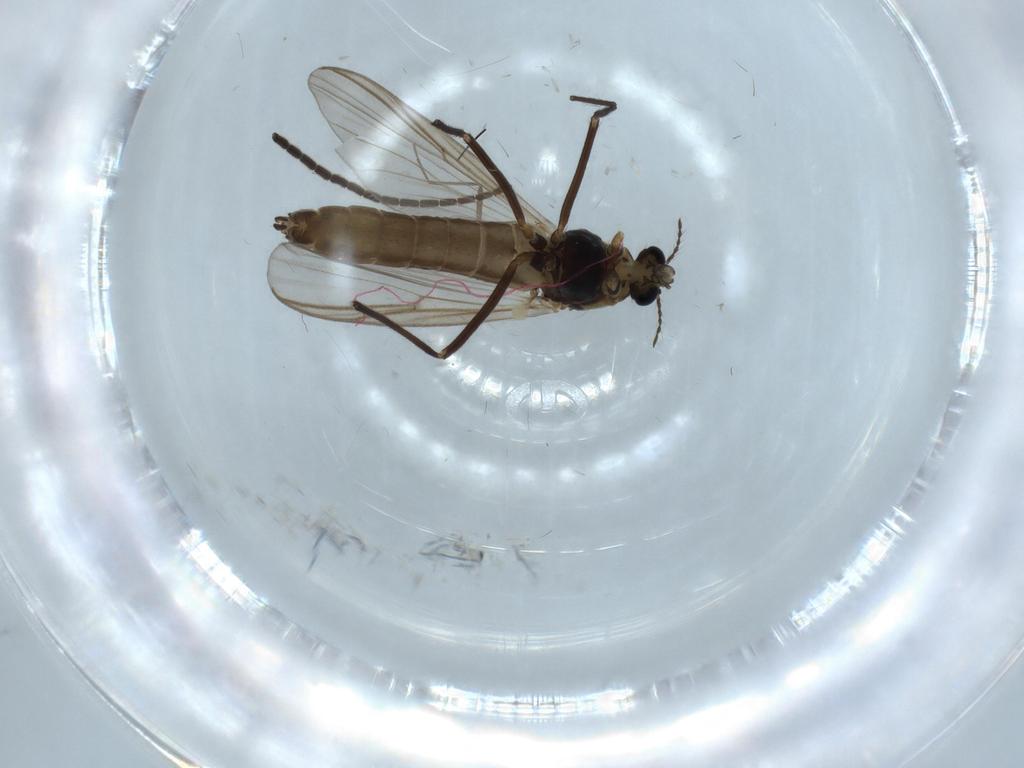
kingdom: Animalia
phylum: Arthropoda
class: Insecta
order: Diptera
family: Chironomidae
